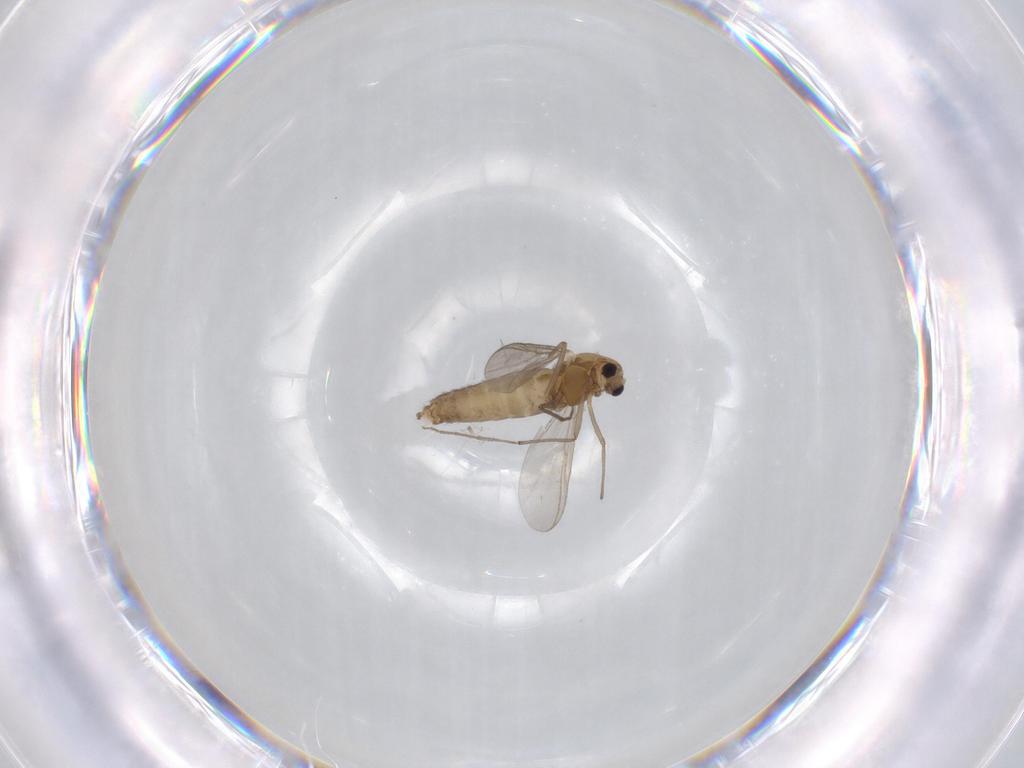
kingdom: Animalia
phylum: Arthropoda
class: Insecta
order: Diptera
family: Chironomidae
